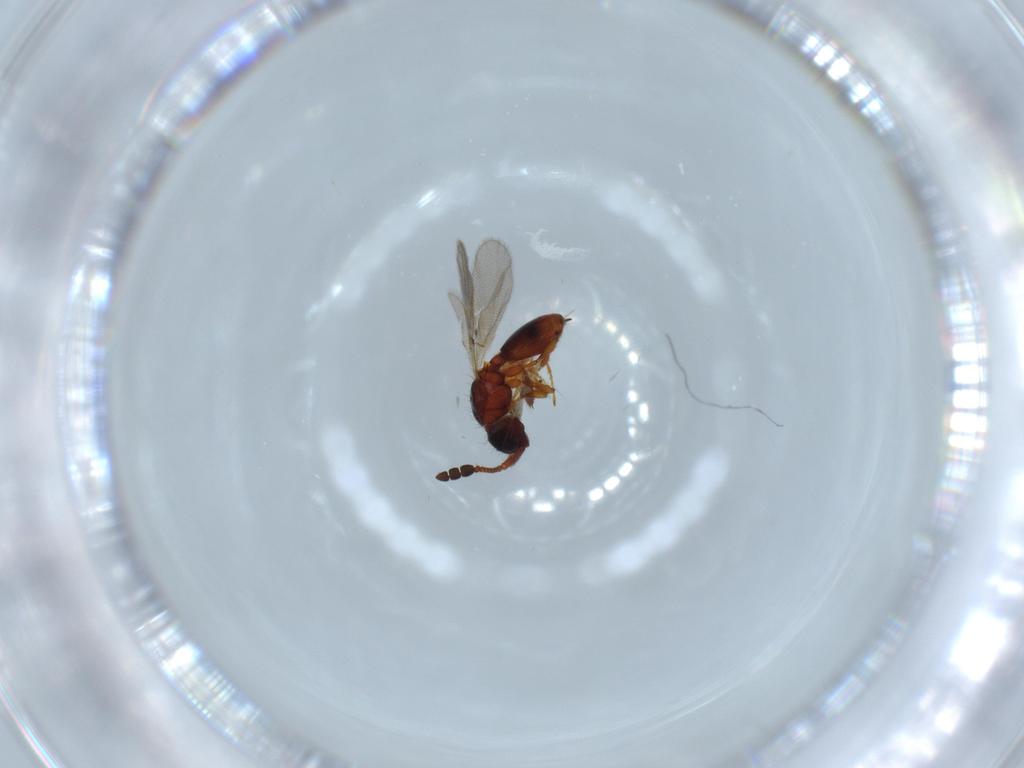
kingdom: Animalia
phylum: Arthropoda
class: Insecta
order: Hymenoptera
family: Diapriidae
